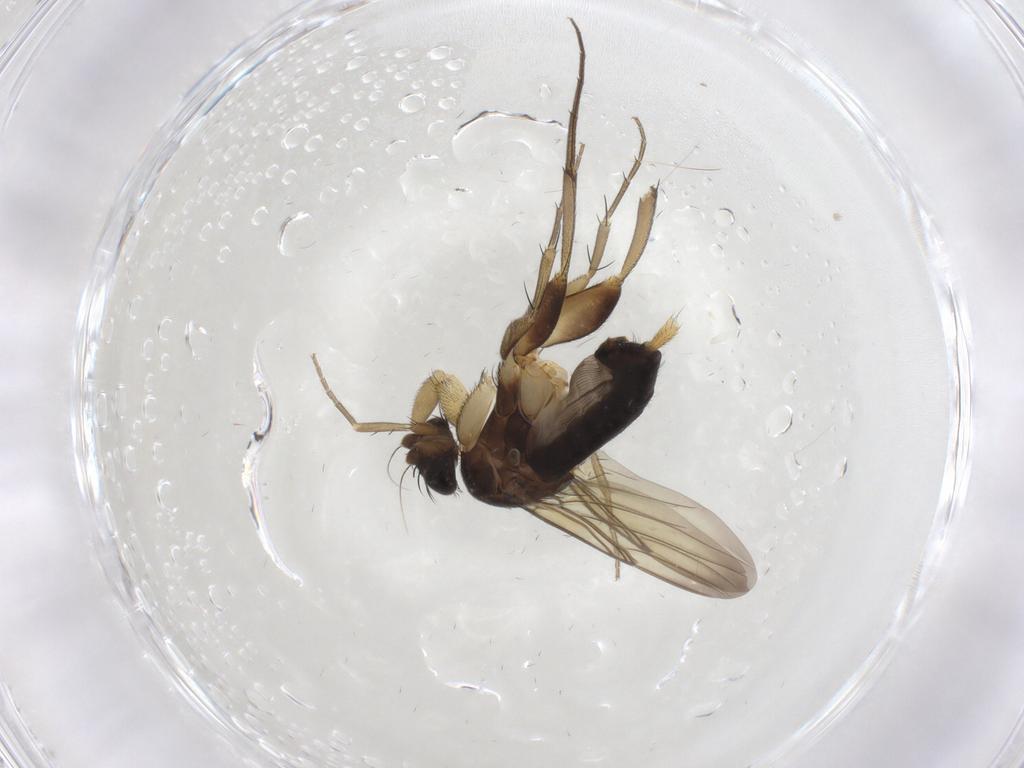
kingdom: Animalia
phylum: Arthropoda
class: Insecta
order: Diptera
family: Phoridae
